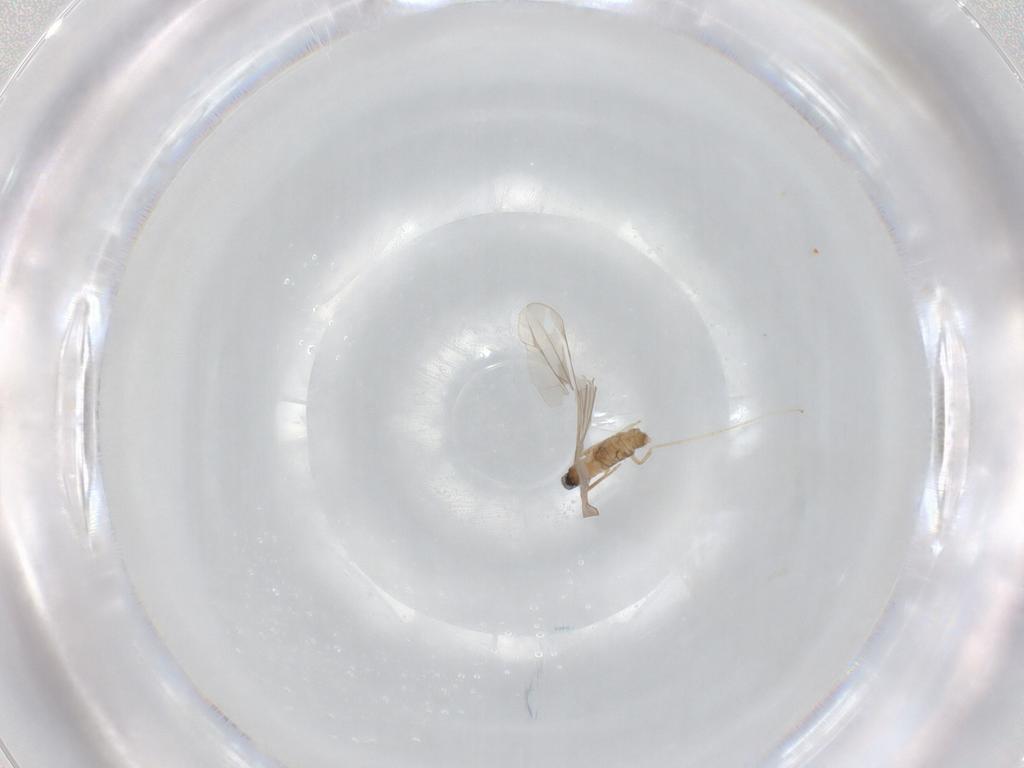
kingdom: Animalia
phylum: Arthropoda
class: Insecta
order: Diptera
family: Cecidomyiidae
